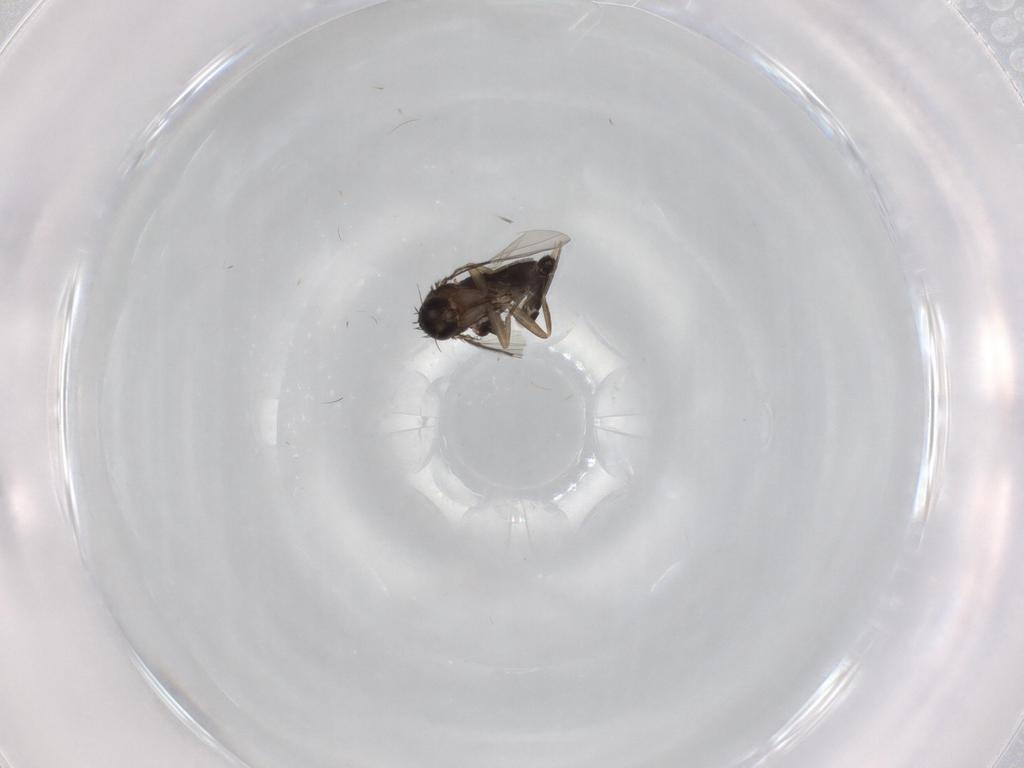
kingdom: Animalia
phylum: Arthropoda
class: Insecta
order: Diptera
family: Phoridae
